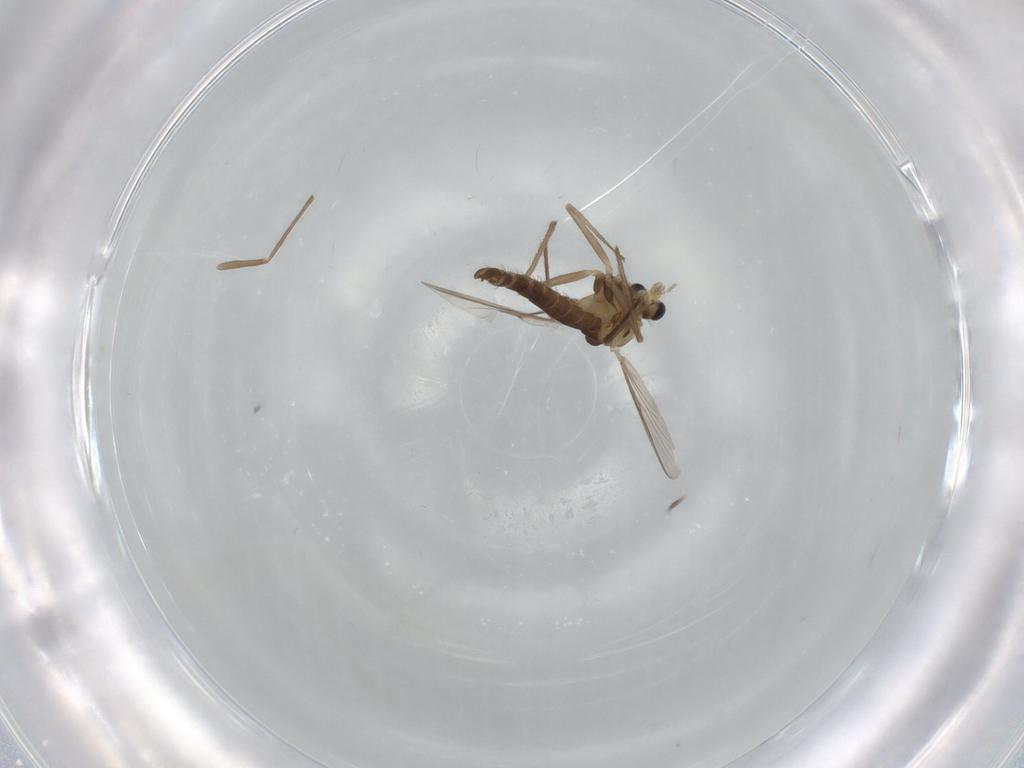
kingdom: Animalia
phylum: Arthropoda
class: Insecta
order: Diptera
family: Chironomidae
